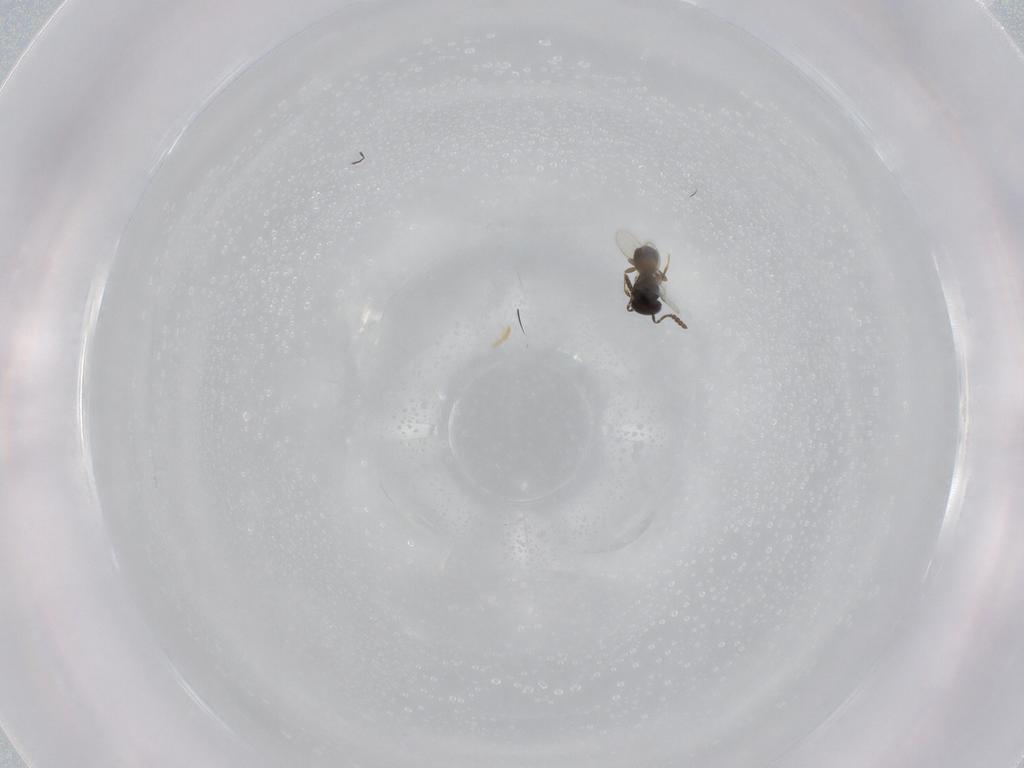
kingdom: Animalia
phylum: Arthropoda
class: Insecta
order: Hymenoptera
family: Scelionidae
